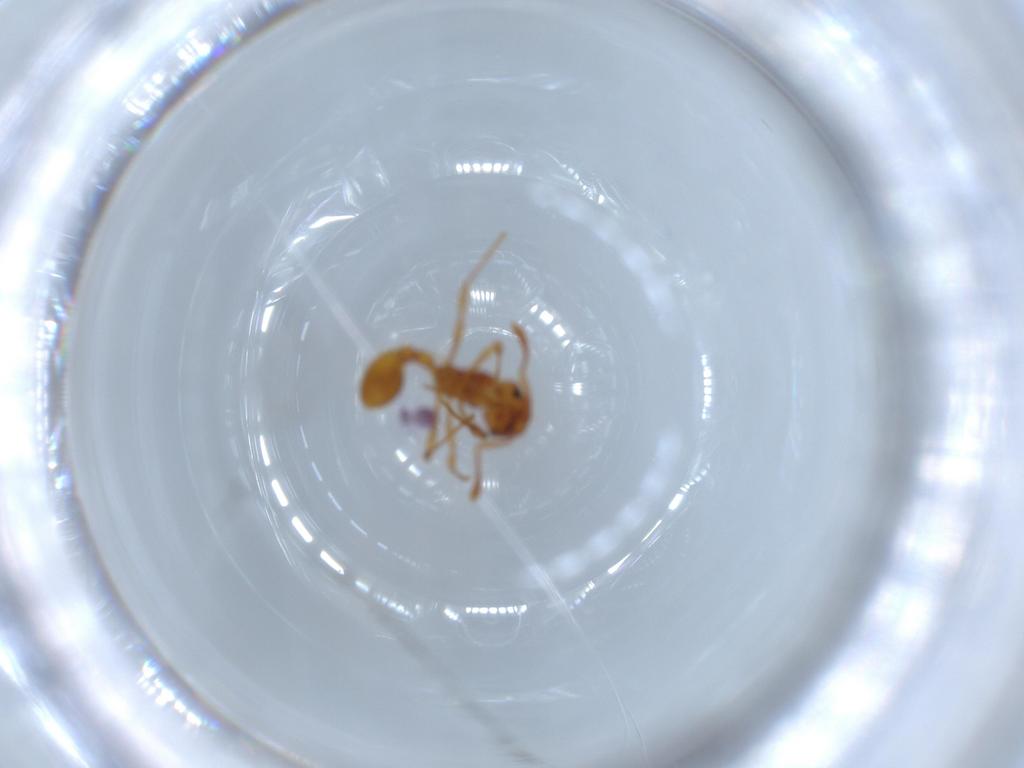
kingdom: Animalia
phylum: Arthropoda
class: Collembola
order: Symphypleona
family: Sminthurididae
